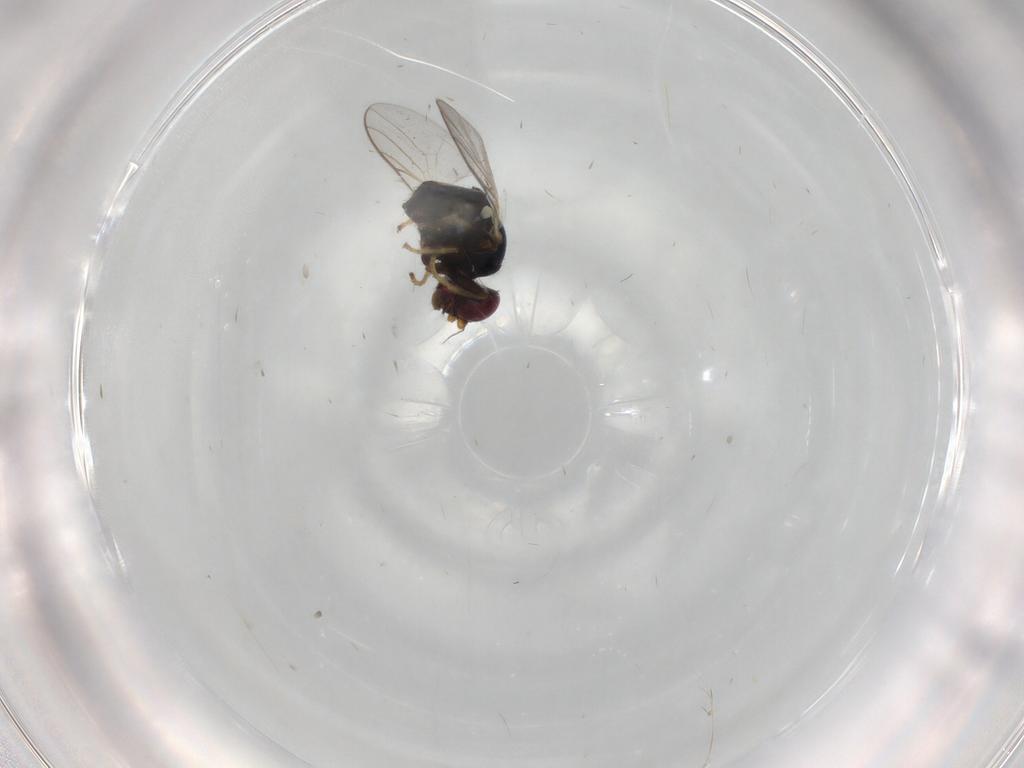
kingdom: Animalia
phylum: Arthropoda
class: Insecta
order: Diptera
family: Chloropidae
